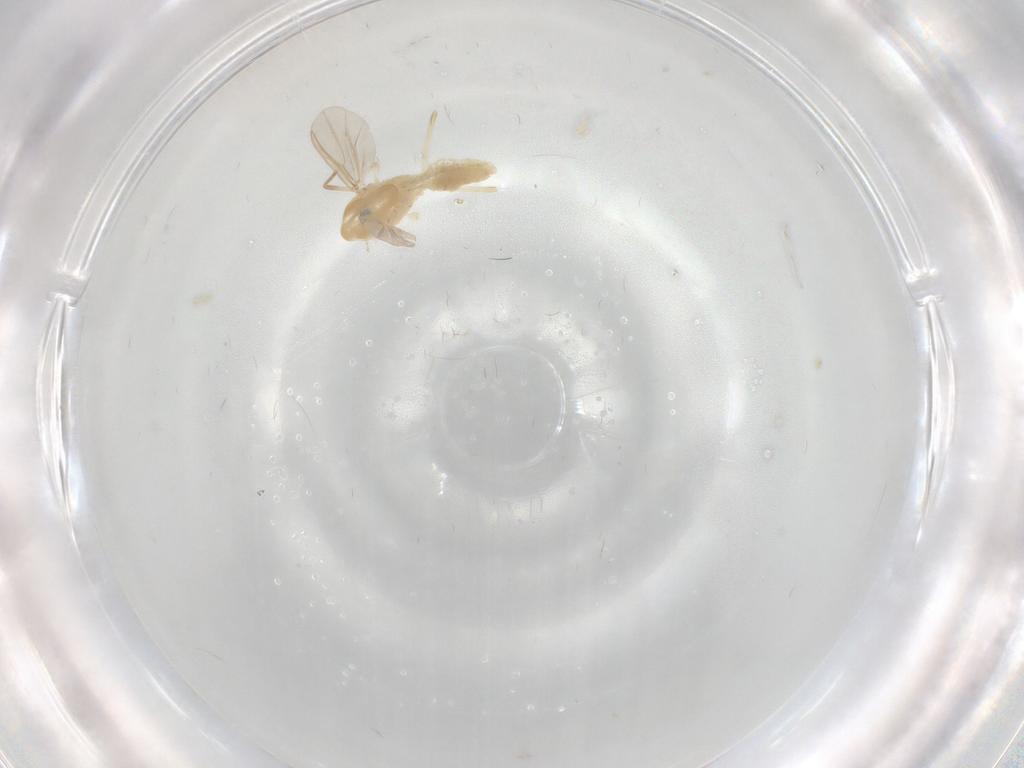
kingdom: Animalia
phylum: Arthropoda
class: Insecta
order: Diptera
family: Chironomidae
